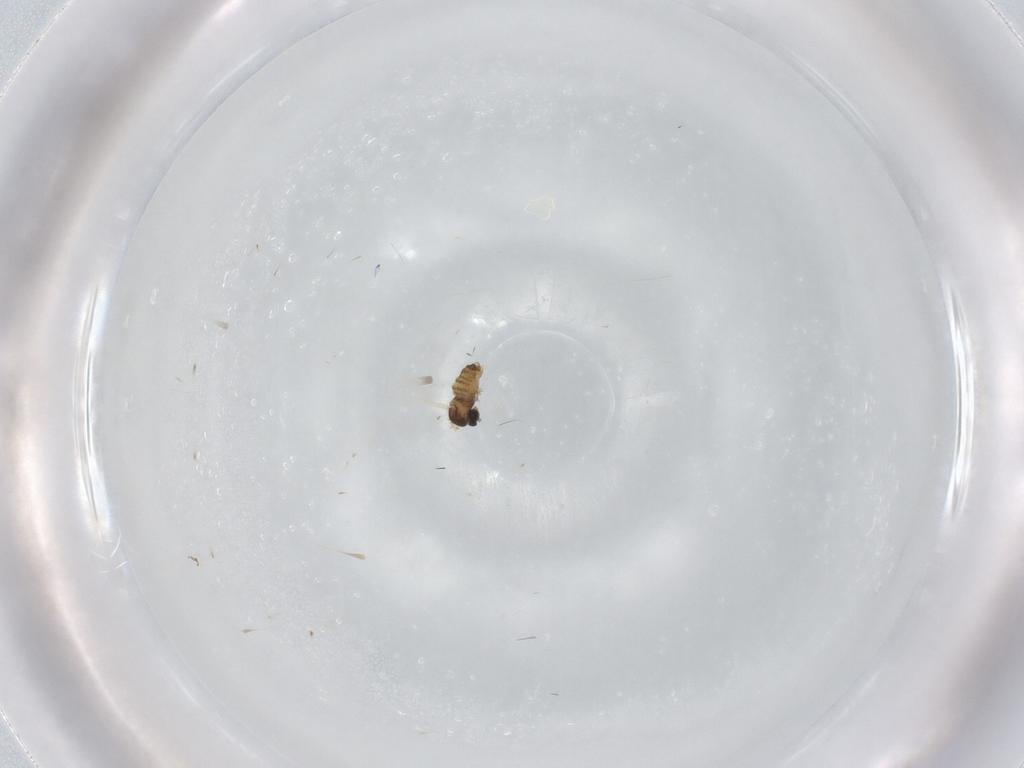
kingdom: Animalia
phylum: Arthropoda
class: Insecta
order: Diptera
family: Cecidomyiidae
